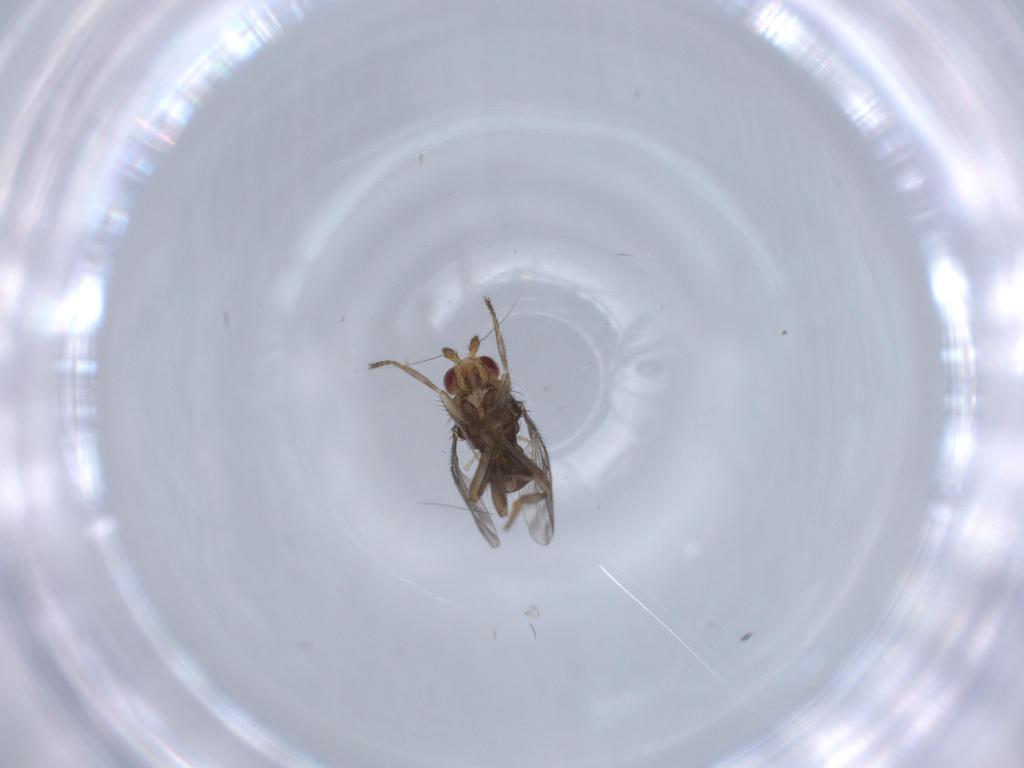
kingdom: Animalia
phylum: Arthropoda
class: Insecta
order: Diptera
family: Sphaeroceridae
